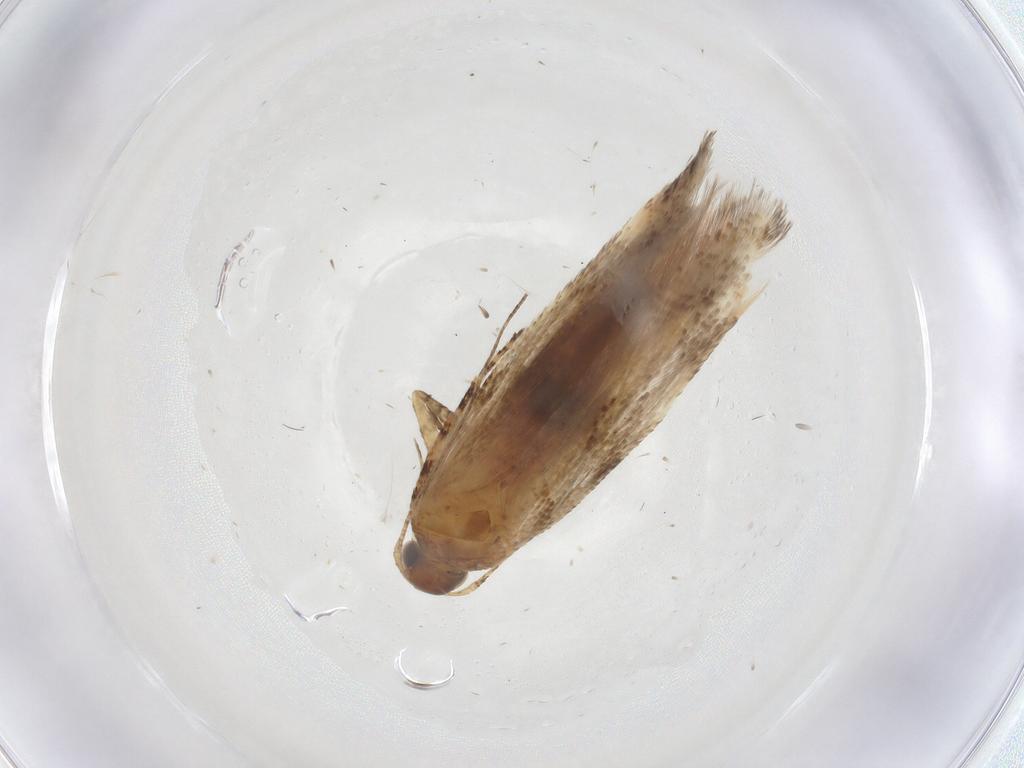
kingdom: Animalia
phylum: Arthropoda
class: Insecta
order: Lepidoptera
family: Gelechiidae
